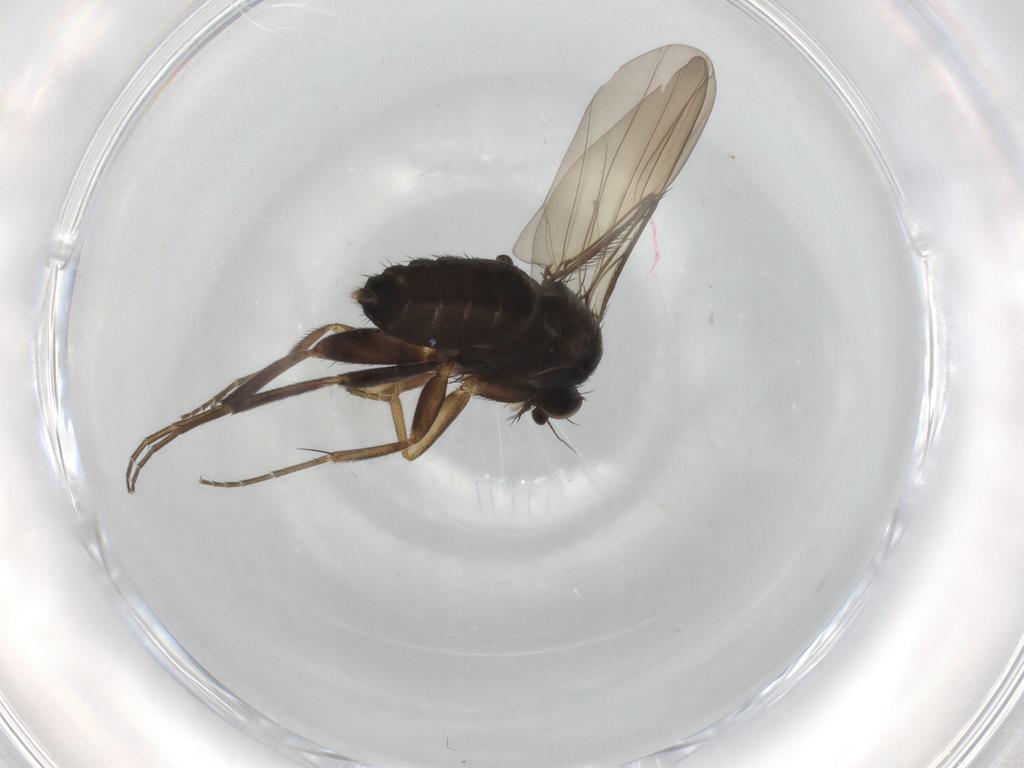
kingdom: Animalia
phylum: Arthropoda
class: Insecta
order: Diptera
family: Phoridae
